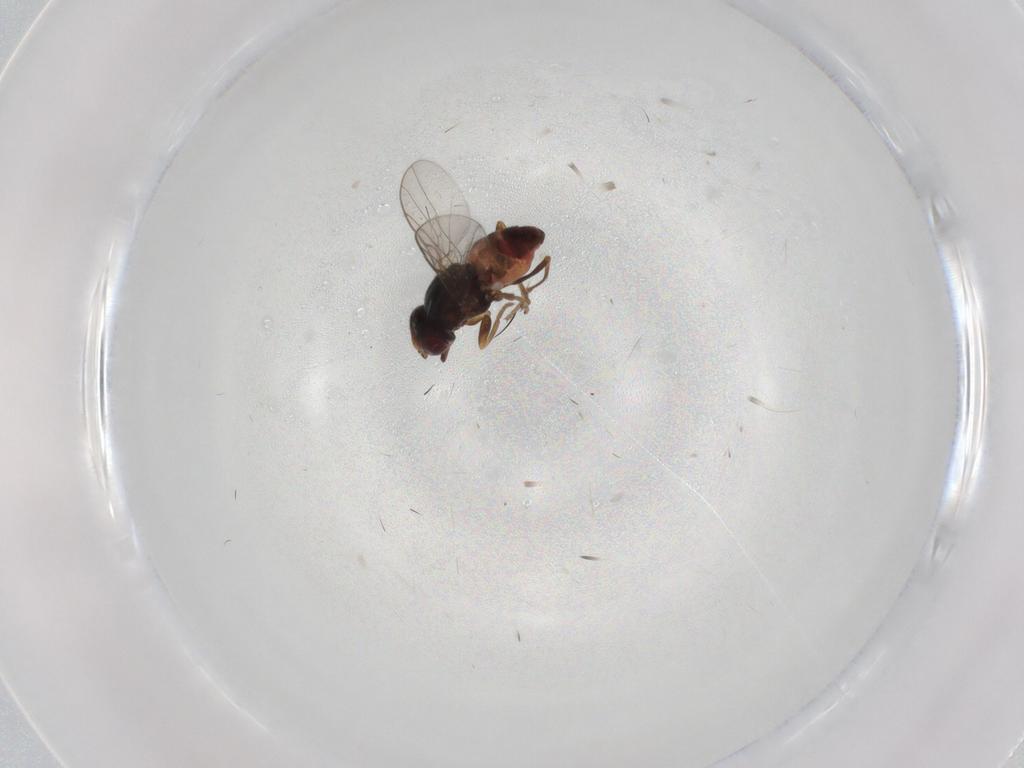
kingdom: Animalia
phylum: Arthropoda
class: Insecta
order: Diptera
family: Chloropidae
